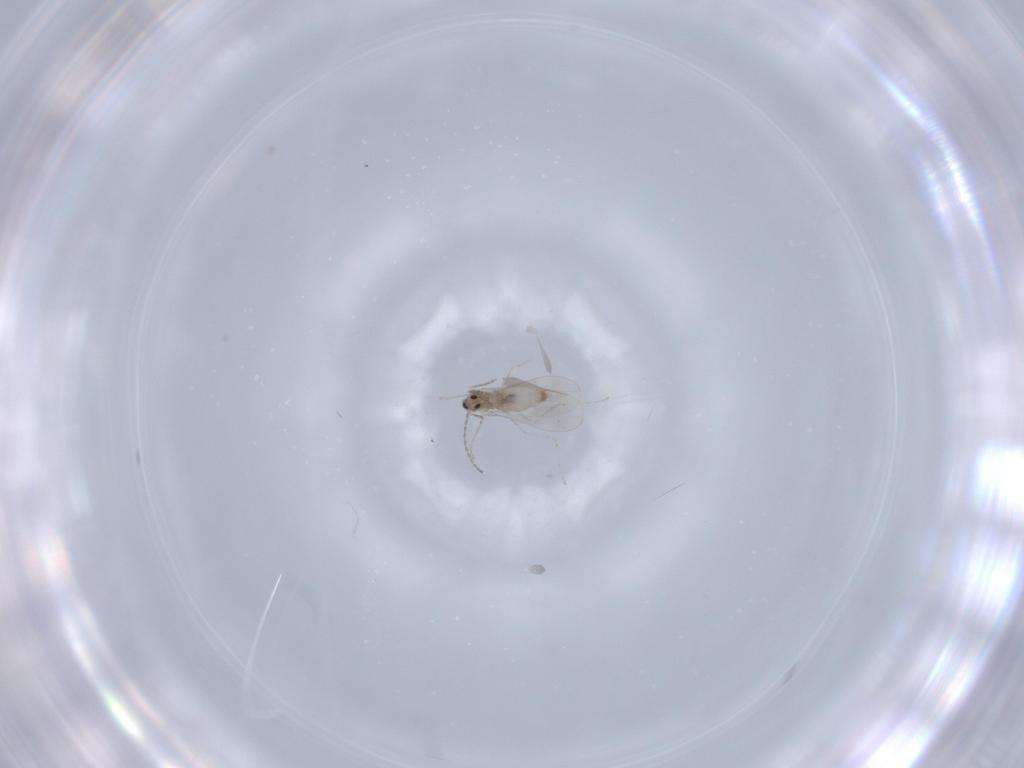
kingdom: Animalia
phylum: Arthropoda
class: Insecta
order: Diptera
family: Cecidomyiidae
